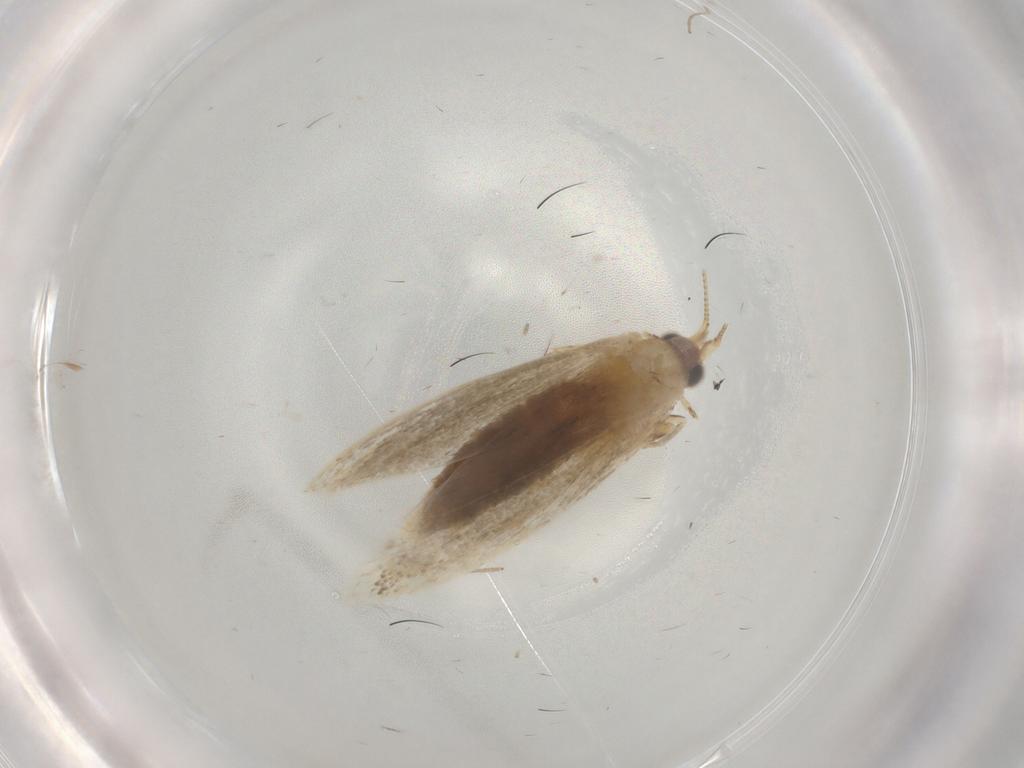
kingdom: Animalia
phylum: Arthropoda
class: Insecta
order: Lepidoptera
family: Nepticulidae
